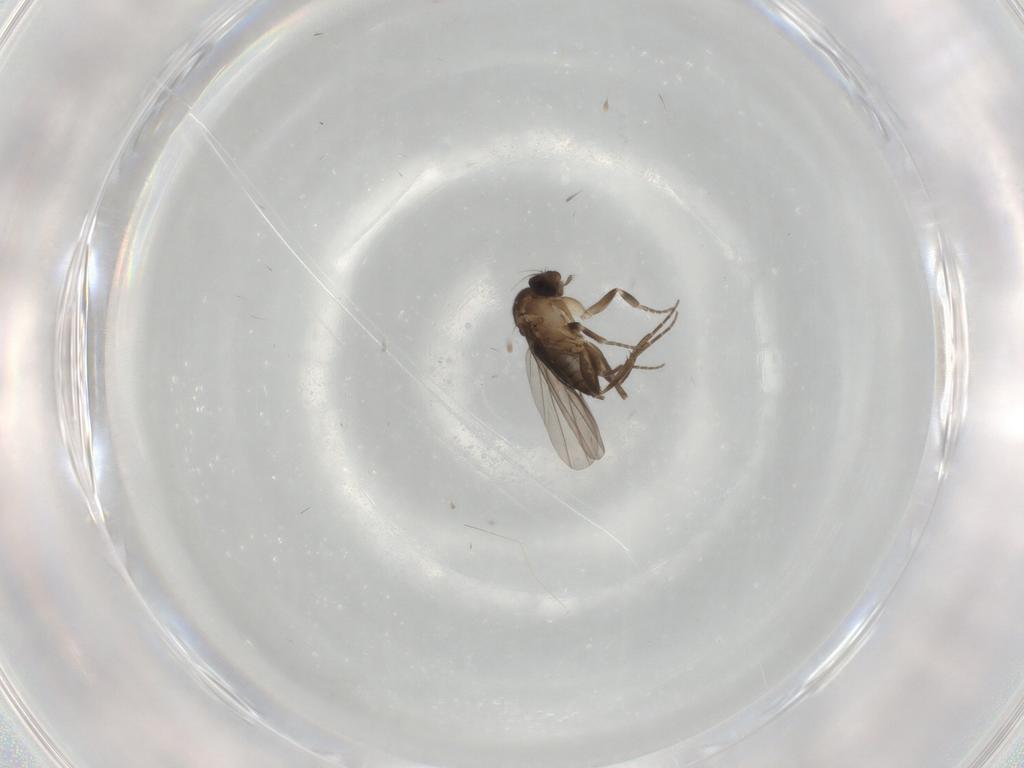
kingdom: Animalia
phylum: Arthropoda
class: Insecta
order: Diptera
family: Phoridae
